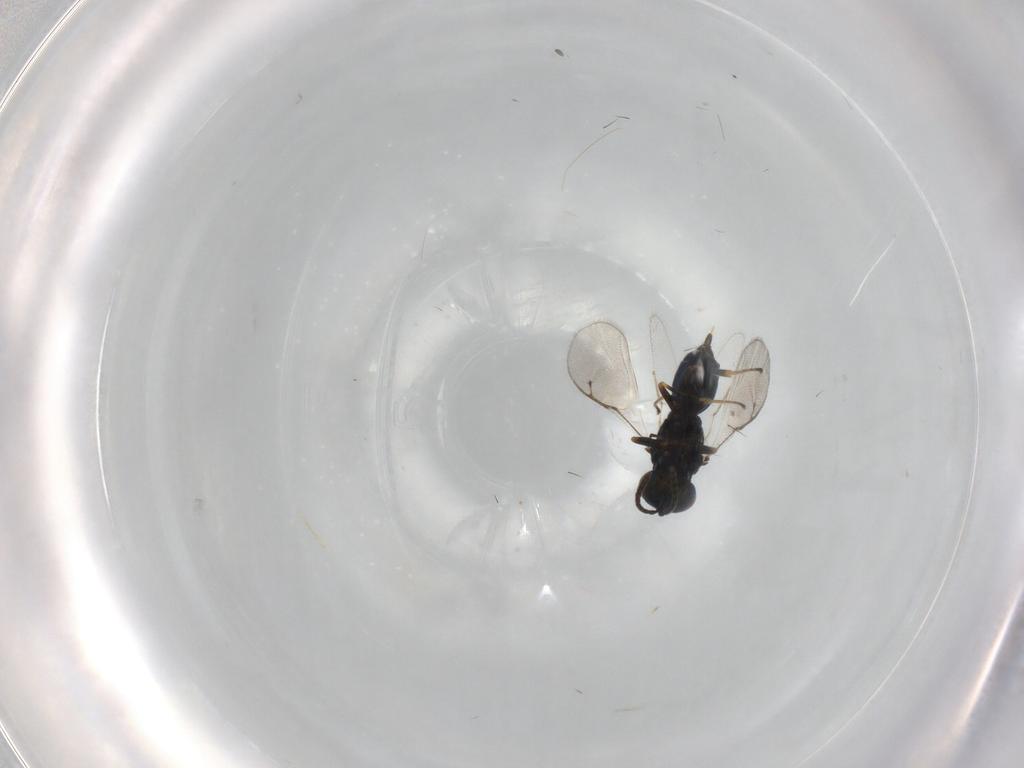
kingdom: Animalia
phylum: Arthropoda
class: Insecta
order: Hymenoptera
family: Pteromalidae
